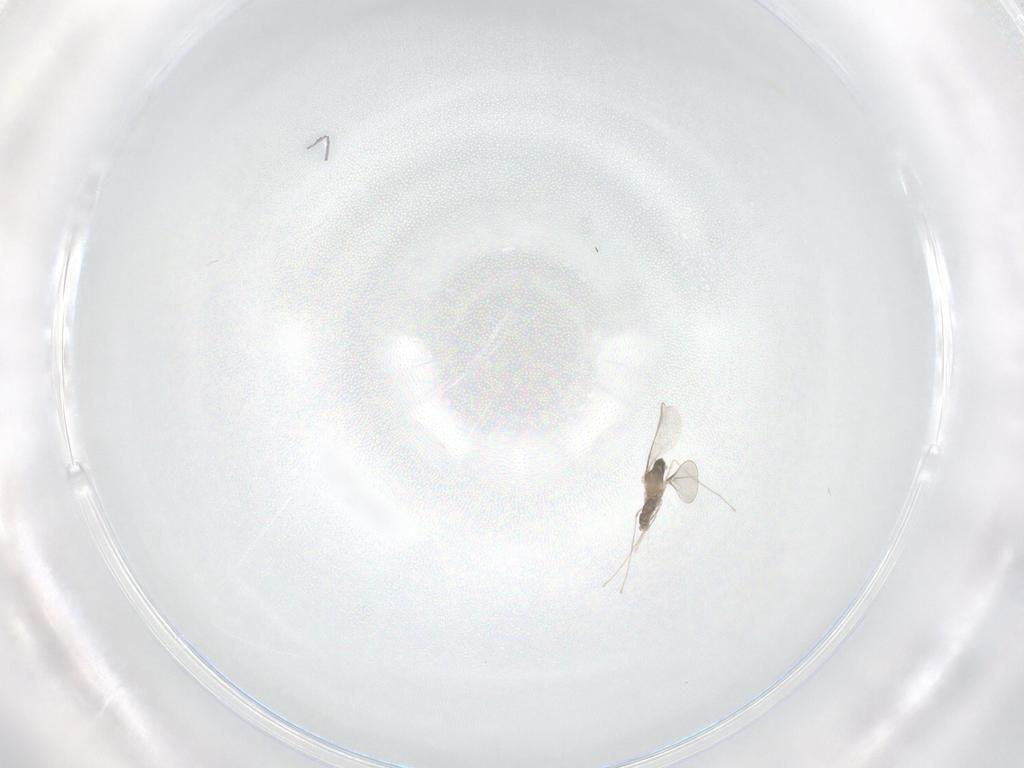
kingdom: Animalia
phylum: Arthropoda
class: Insecta
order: Diptera
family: Cecidomyiidae
